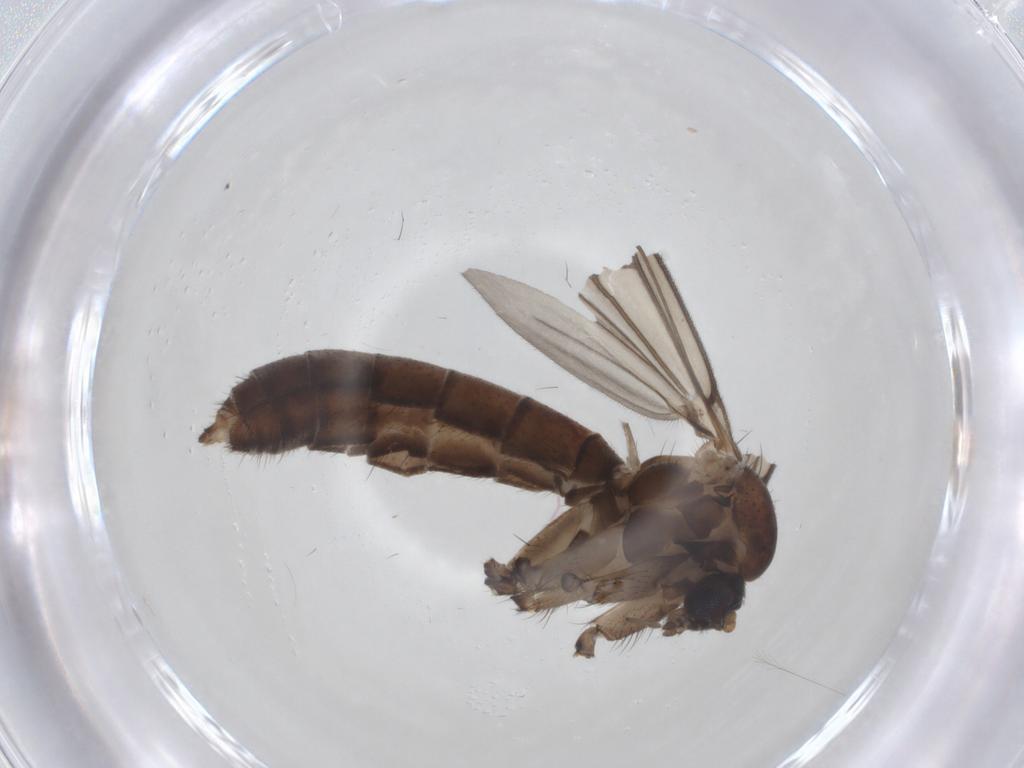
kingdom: Animalia
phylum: Arthropoda
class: Insecta
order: Diptera
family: Mycetophilidae
